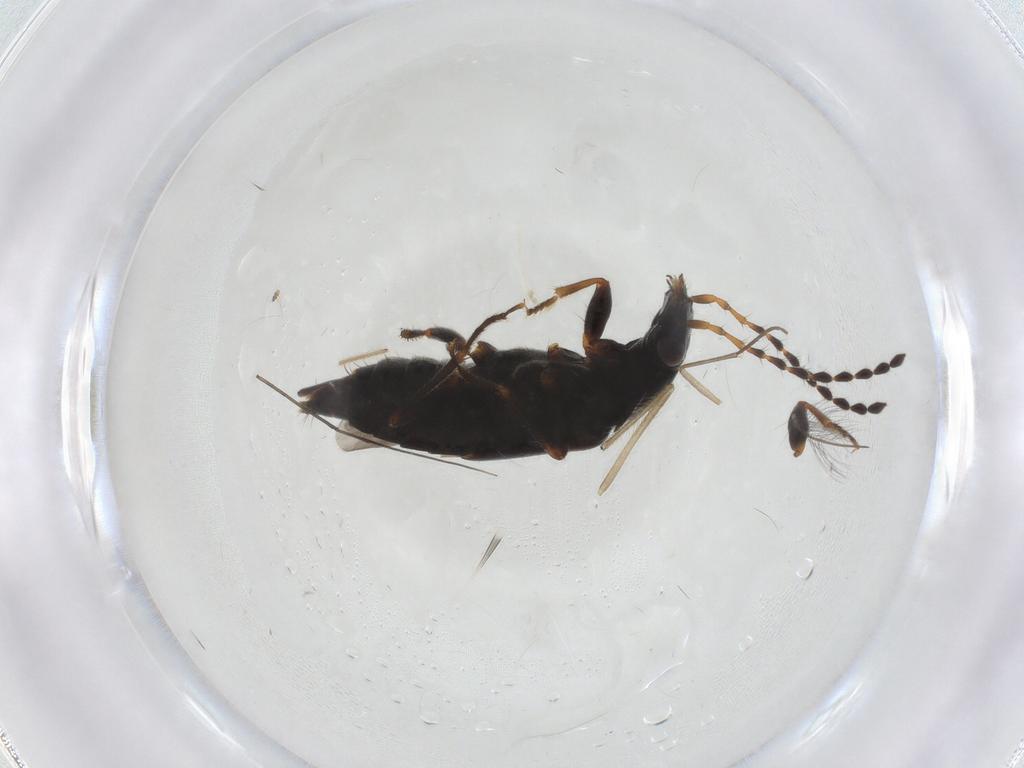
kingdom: Animalia
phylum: Arthropoda
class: Insecta
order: Coleoptera
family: Staphylinidae
